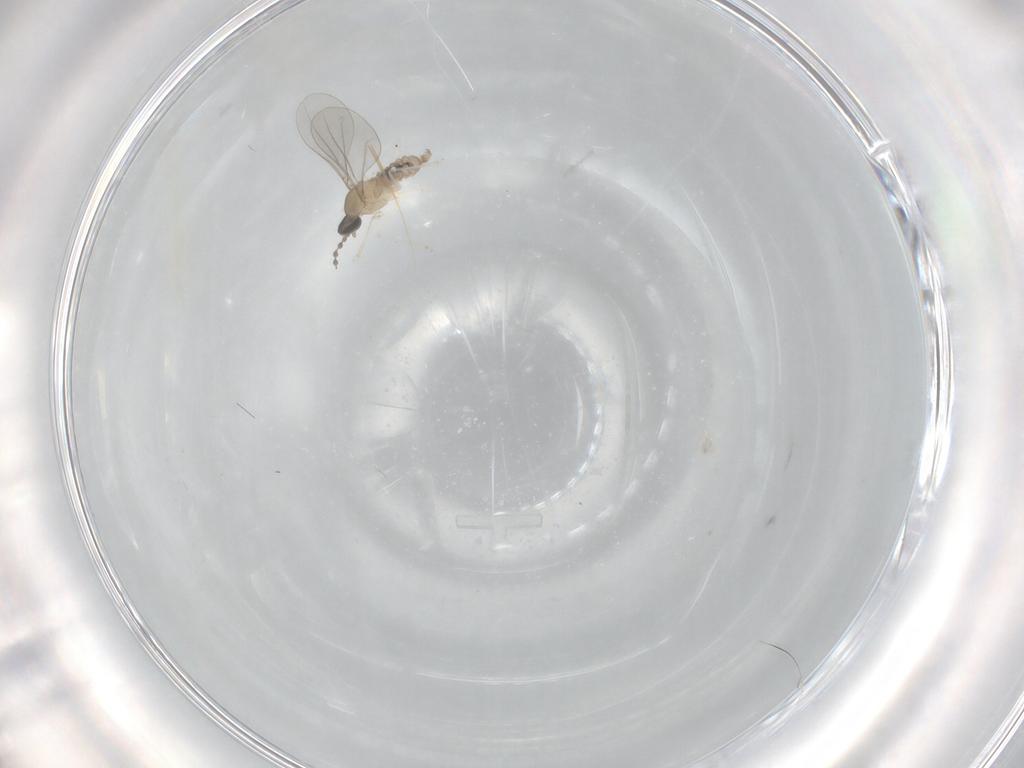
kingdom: Animalia
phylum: Arthropoda
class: Insecta
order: Diptera
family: Cecidomyiidae
